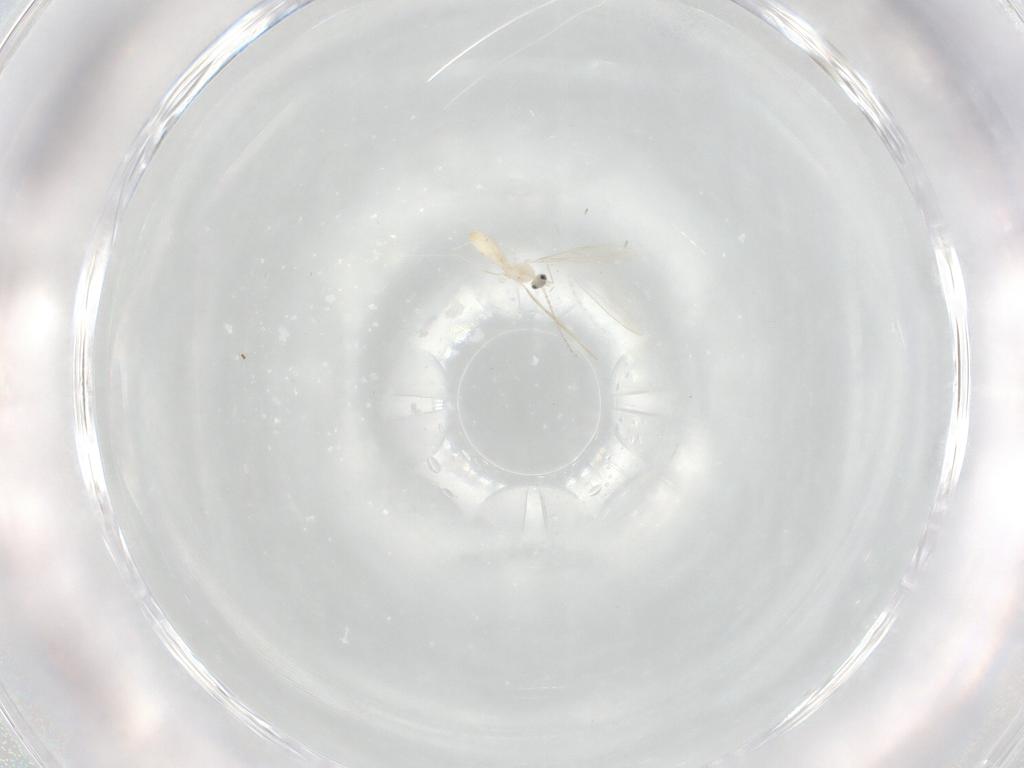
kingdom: Animalia
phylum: Arthropoda
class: Insecta
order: Diptera
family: Cecidomyiidae
